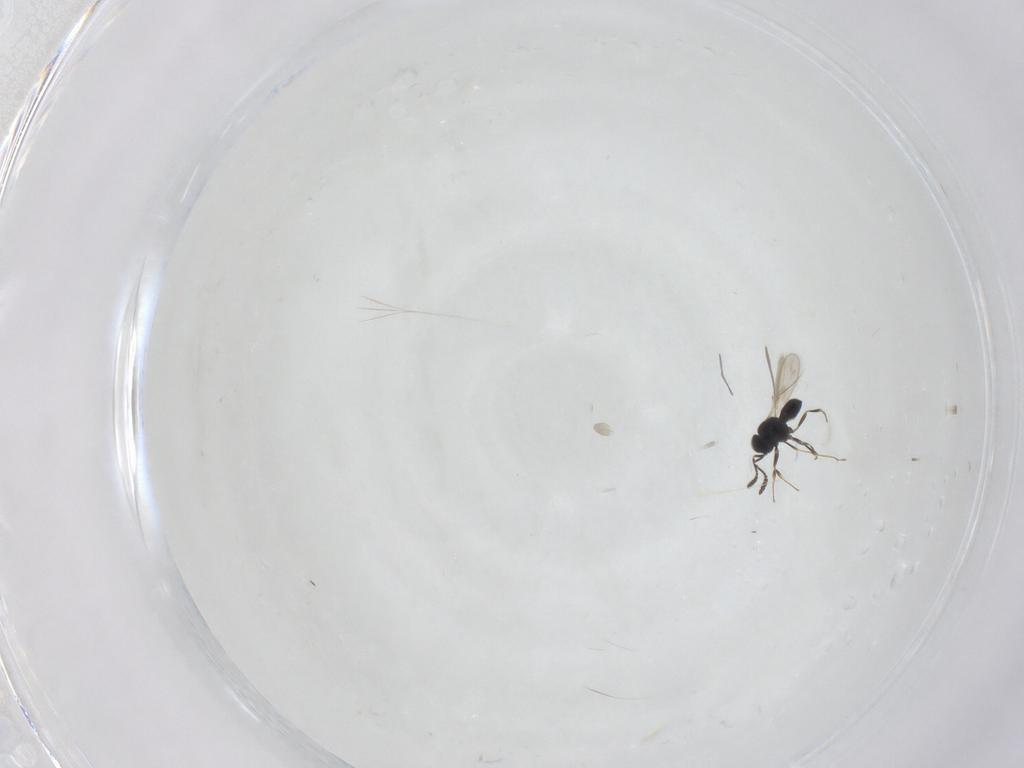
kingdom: Animalia
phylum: Arthropoda
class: Insecta
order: Hymenoptera
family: Scelionidae
